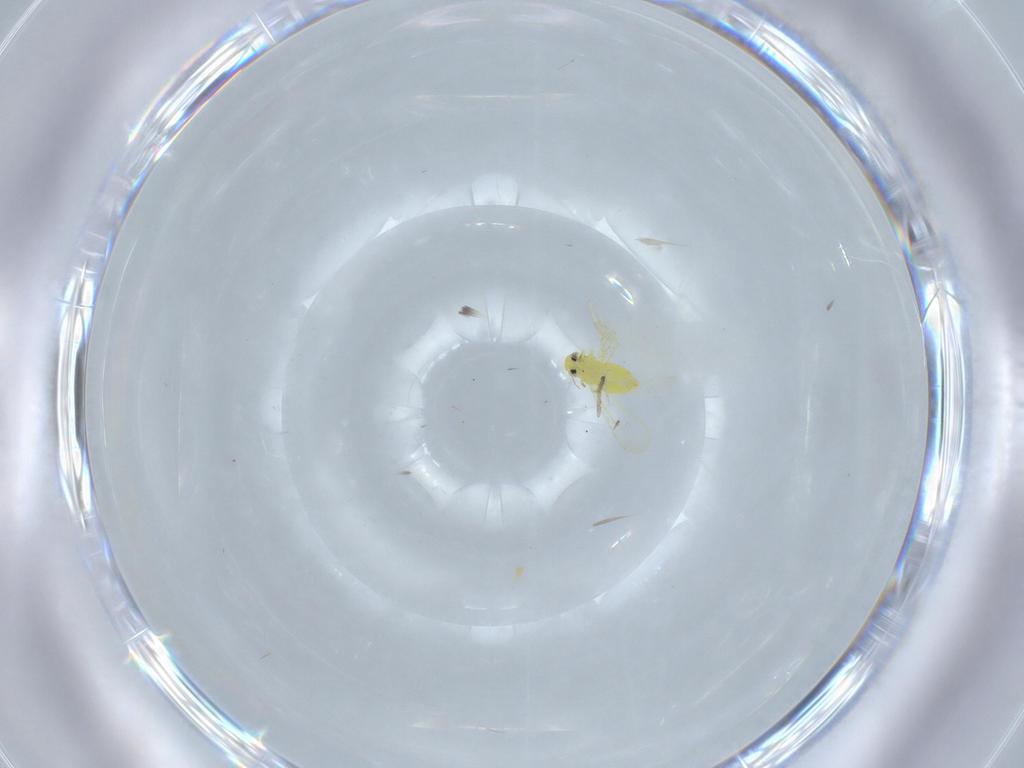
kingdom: Animalia
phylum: Arthropoda
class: Insecta
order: Hemiptera
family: Aleyrodidae
